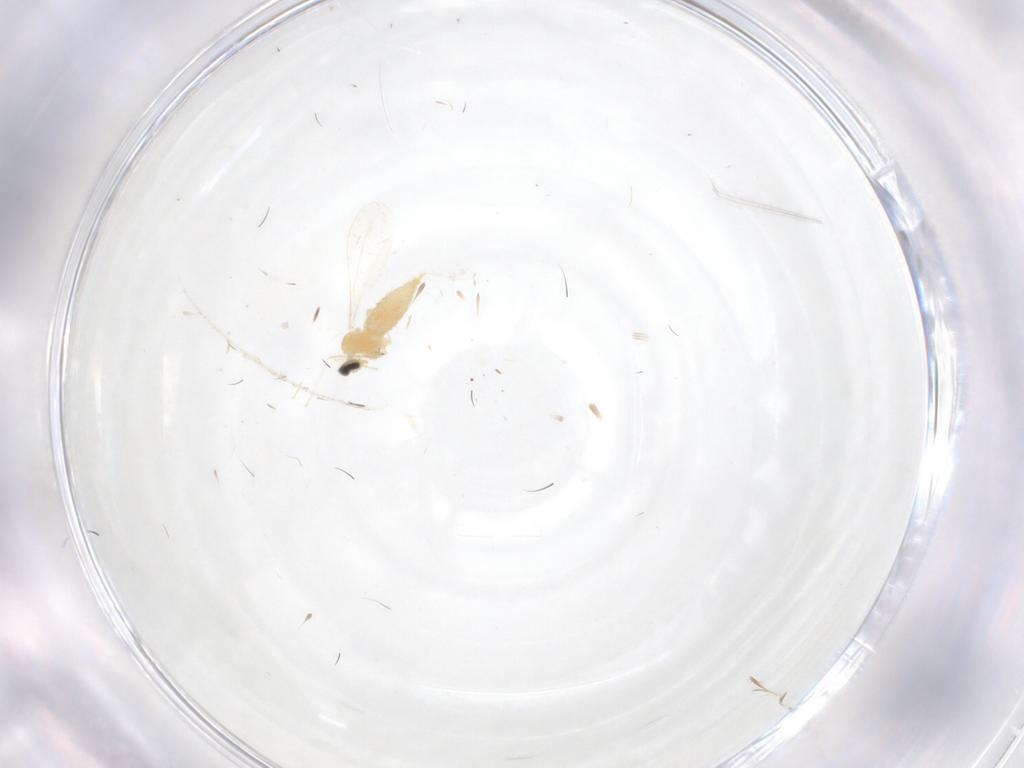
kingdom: Animalia
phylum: Arthropoda
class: Insecta
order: Diptera
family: Cecidomyiidae
